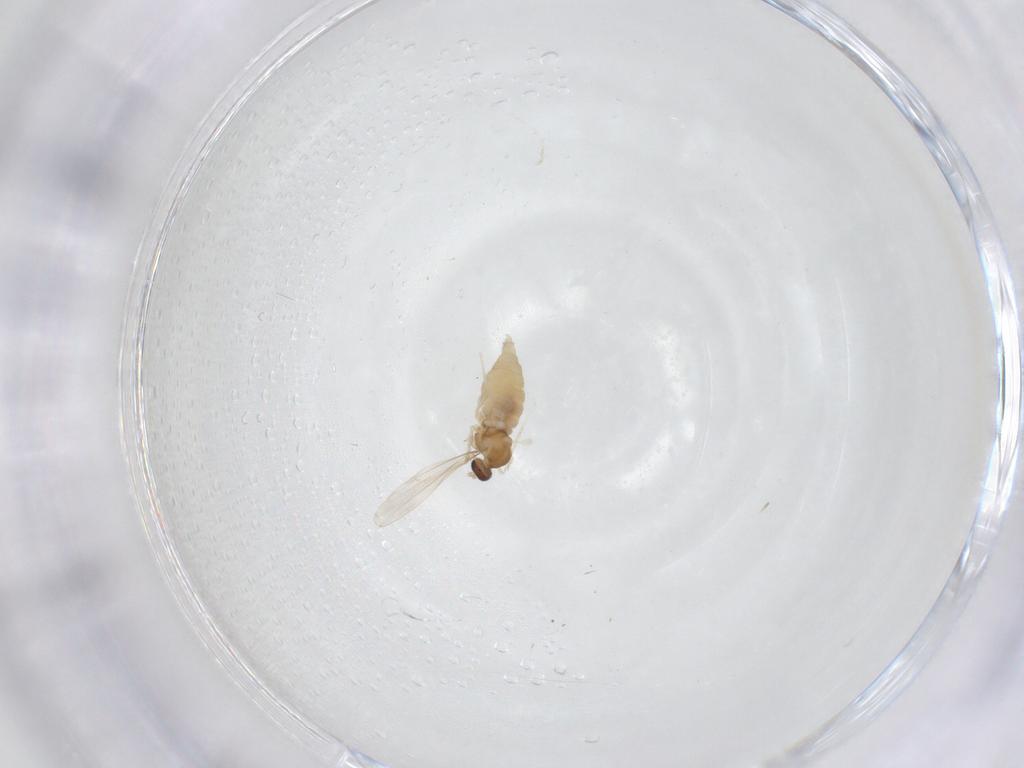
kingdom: Animalia
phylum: Arthropoda
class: Insecta
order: Diptera
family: Cecidomyiidae
